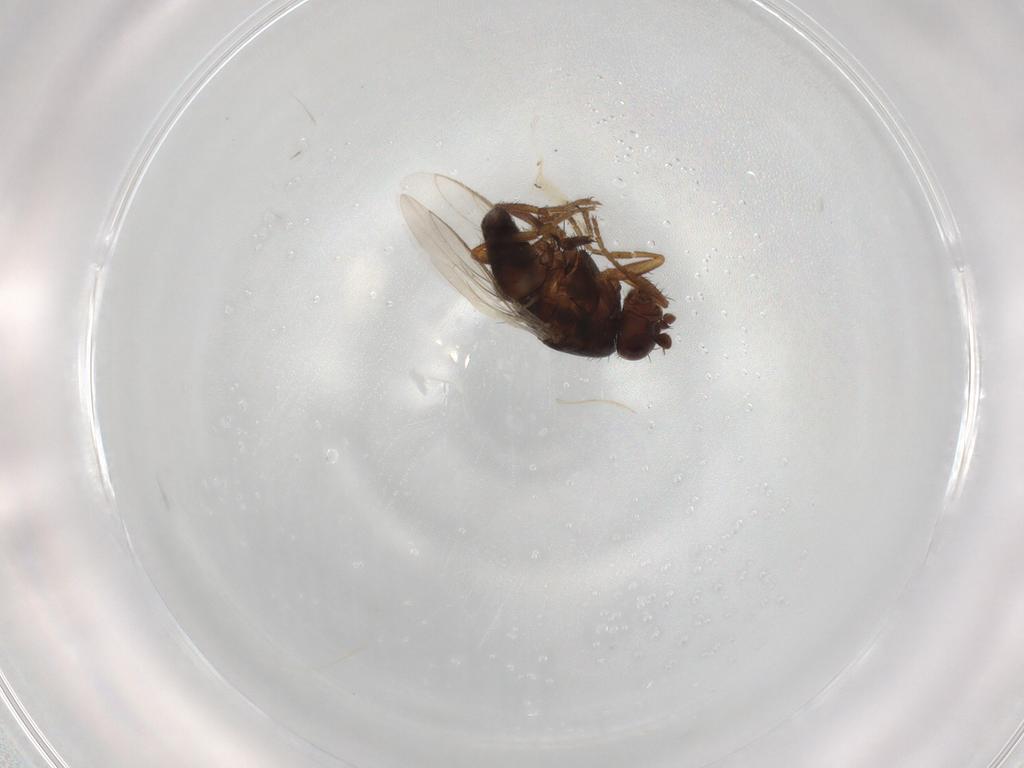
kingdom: Animalia
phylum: Arthropoda
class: Insecta
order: Diptera
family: Sphaeroceridae
